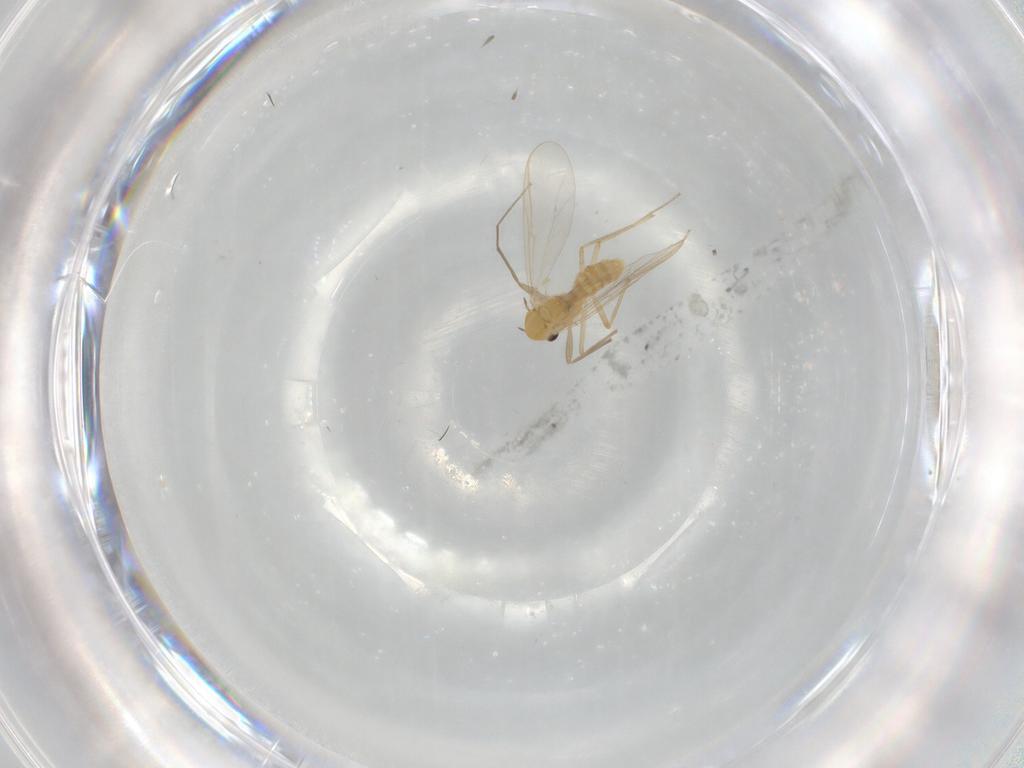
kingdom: Animalia
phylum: Arthropoda
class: Insecta
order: Diptera
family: Chironomidae
